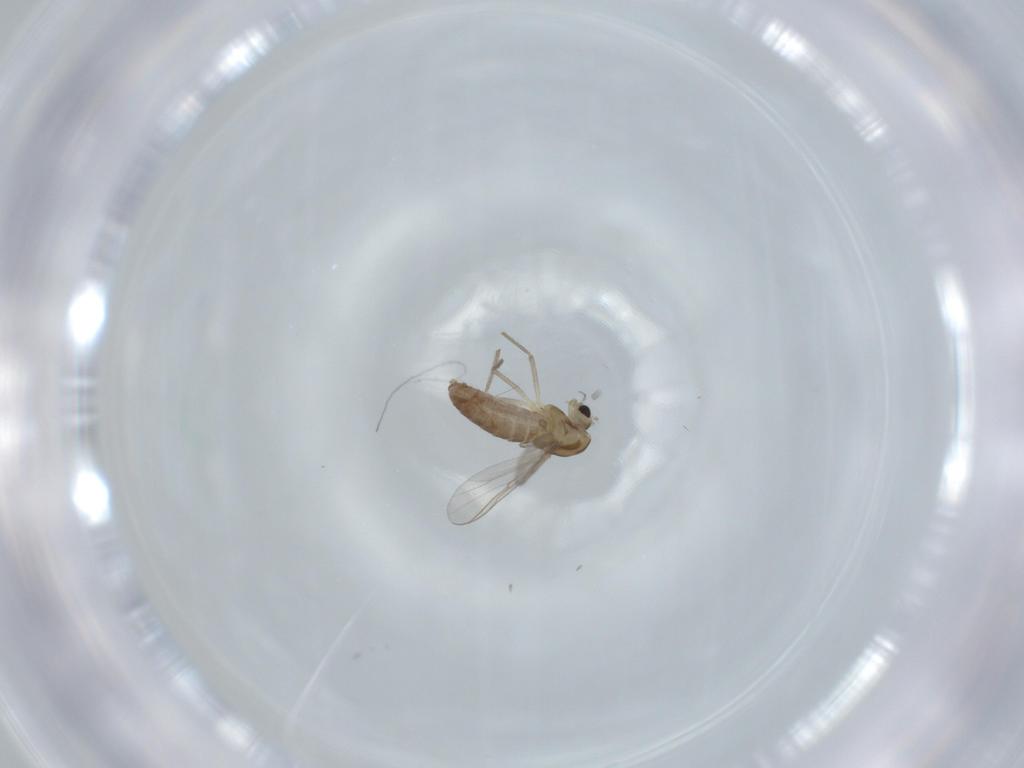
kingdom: Animalia
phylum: Arthropoda
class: Insecta
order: Diptera
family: Chironomidae
